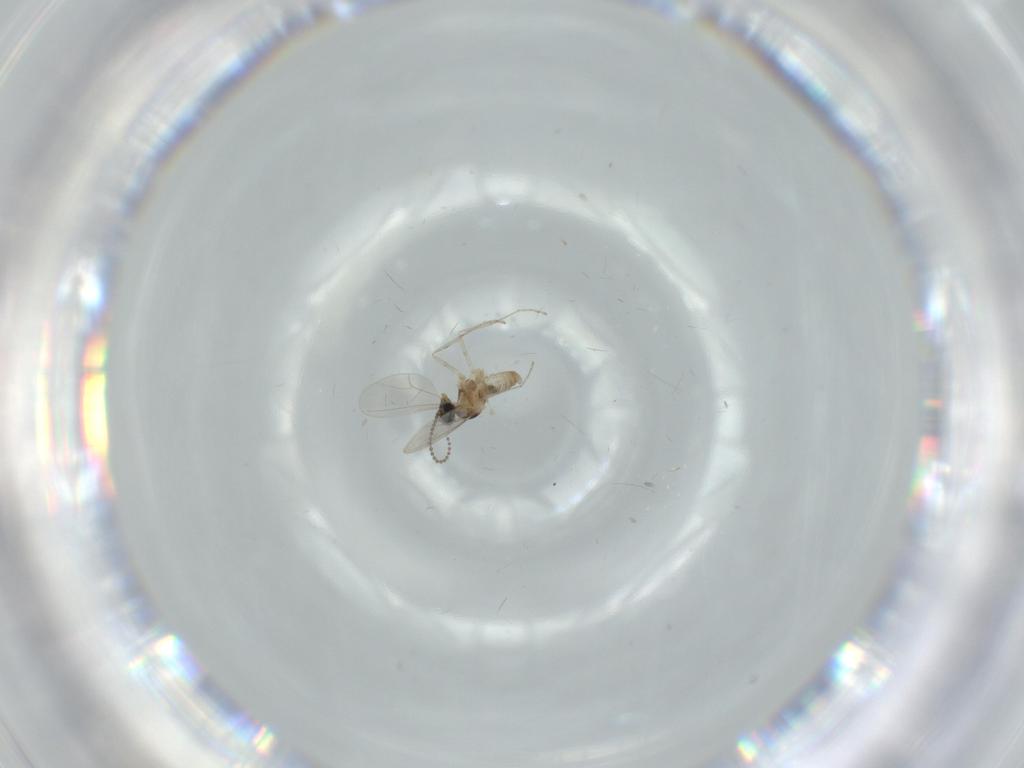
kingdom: Animalia
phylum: Arthropoda
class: Insecta
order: Diptera
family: Cecidomyiidae
